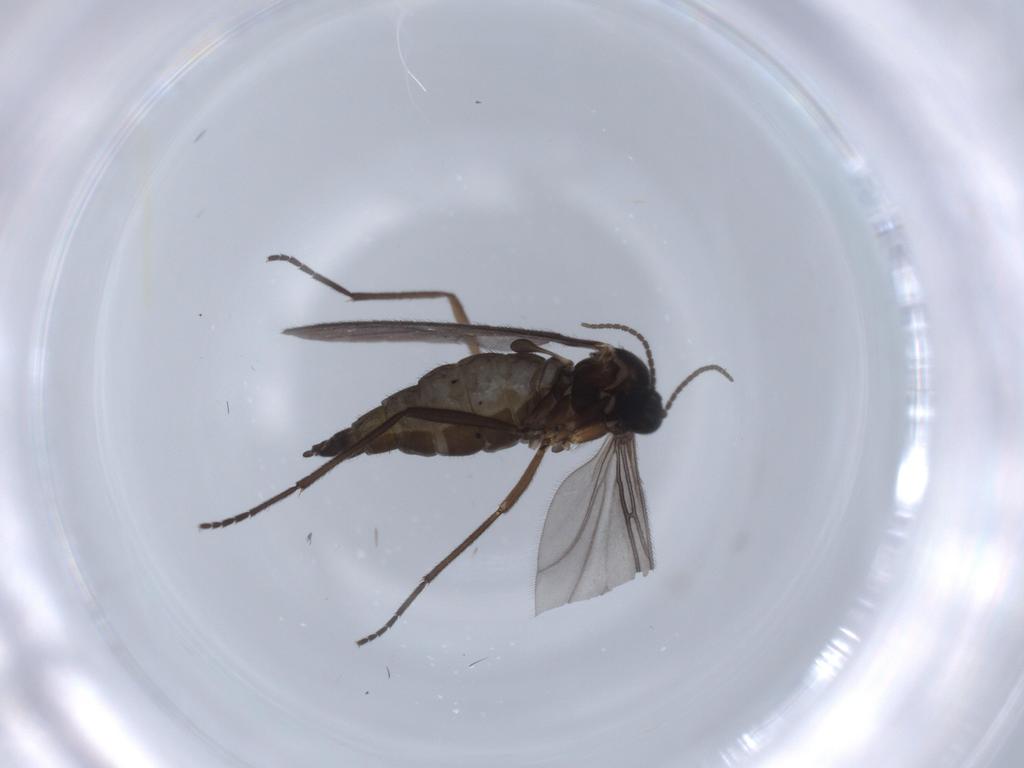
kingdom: Animalia
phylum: Arthropoda
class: Insecta
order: Diptera
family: Sciaridae
